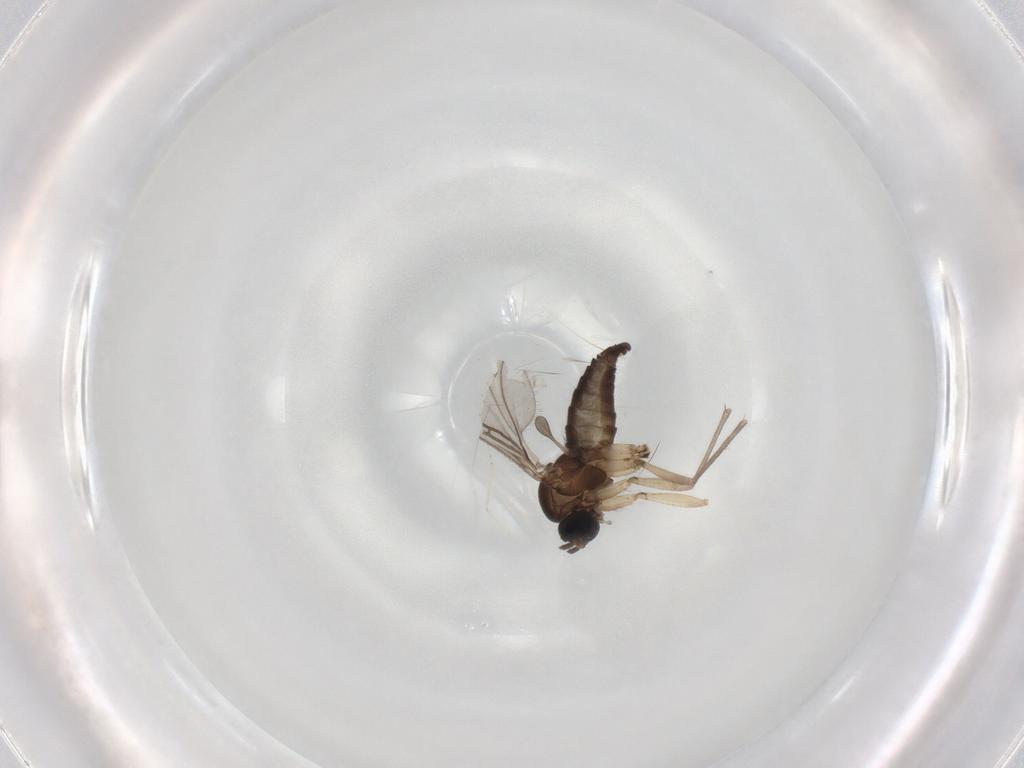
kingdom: Animalia
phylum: Arthropoda
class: Insecta
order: Diptera
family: Sciaridae
